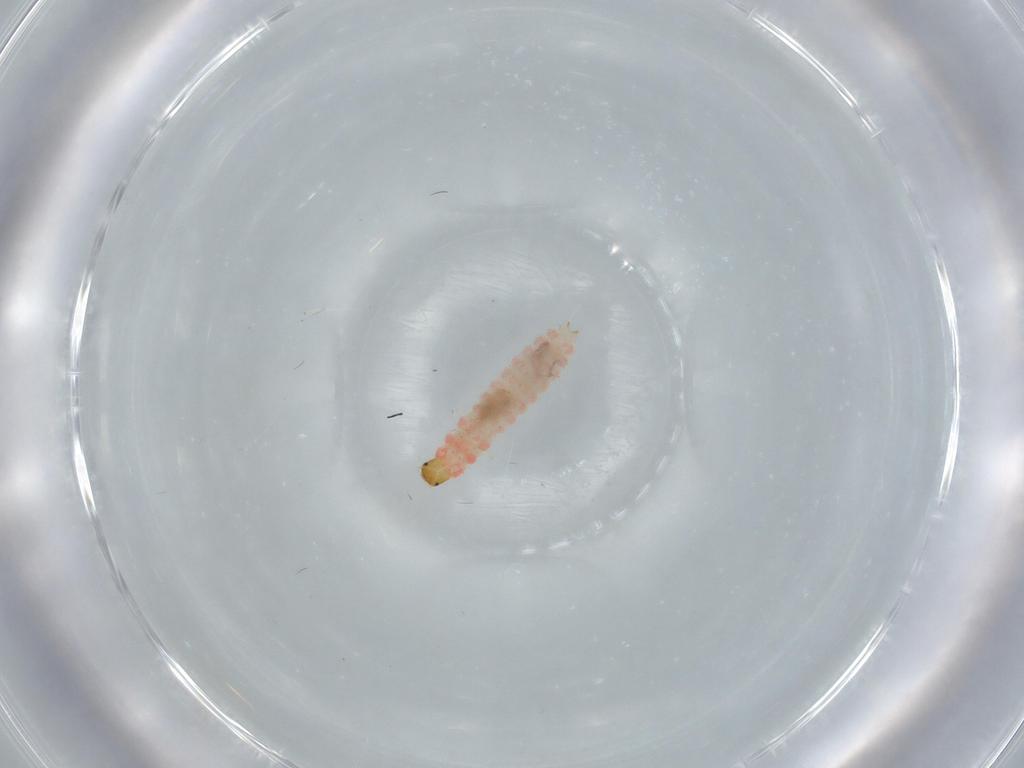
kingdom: Animalia
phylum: Arthropoda
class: Insecta
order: Coleoptera
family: Melyridae
